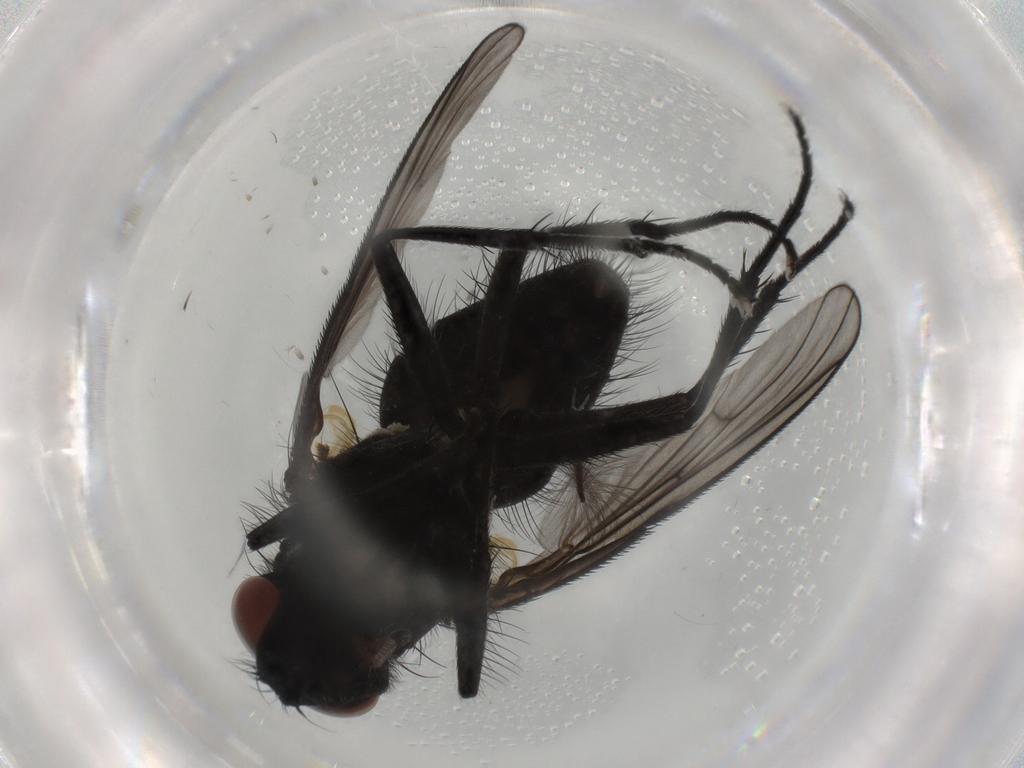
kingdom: Animalia
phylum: Arthropoda
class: Insecta
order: Diptera
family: Muscidae
